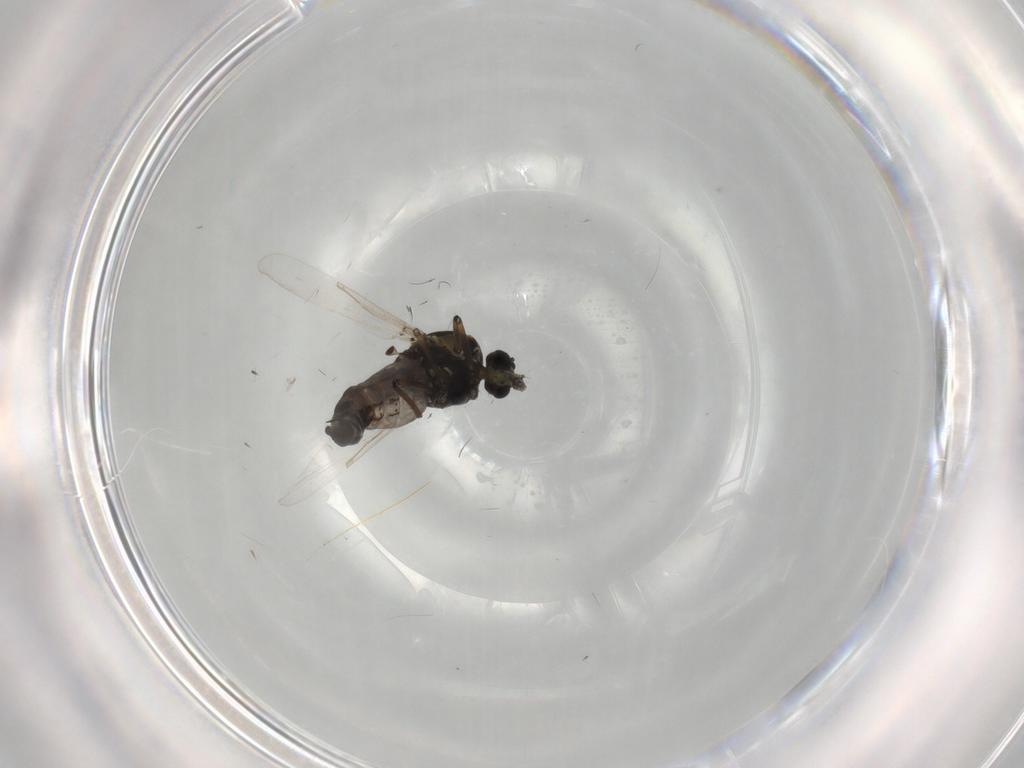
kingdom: Animalia
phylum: Arthropoda
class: Insecta
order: Diptera
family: Ceratopogonidae
